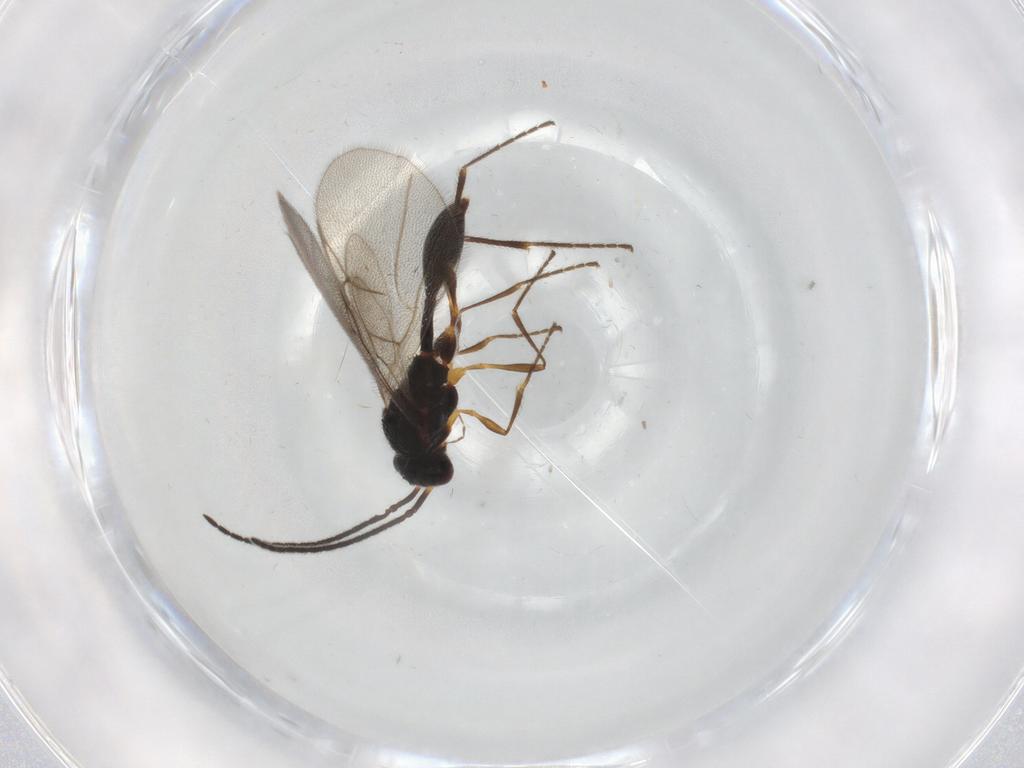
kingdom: Animalia
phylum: Arthropoda
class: Insecta
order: Hymenoptera
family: Diapriidae
